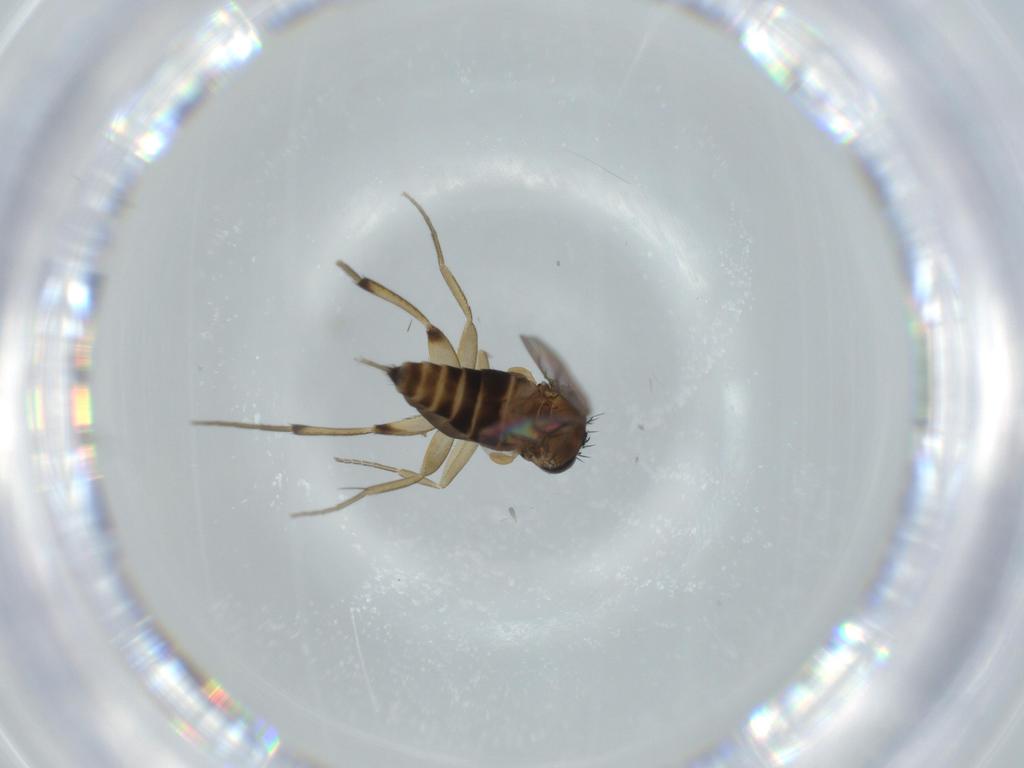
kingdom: Animalia
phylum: Arthropoda
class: Insecta
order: Diptera
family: Phoridae
